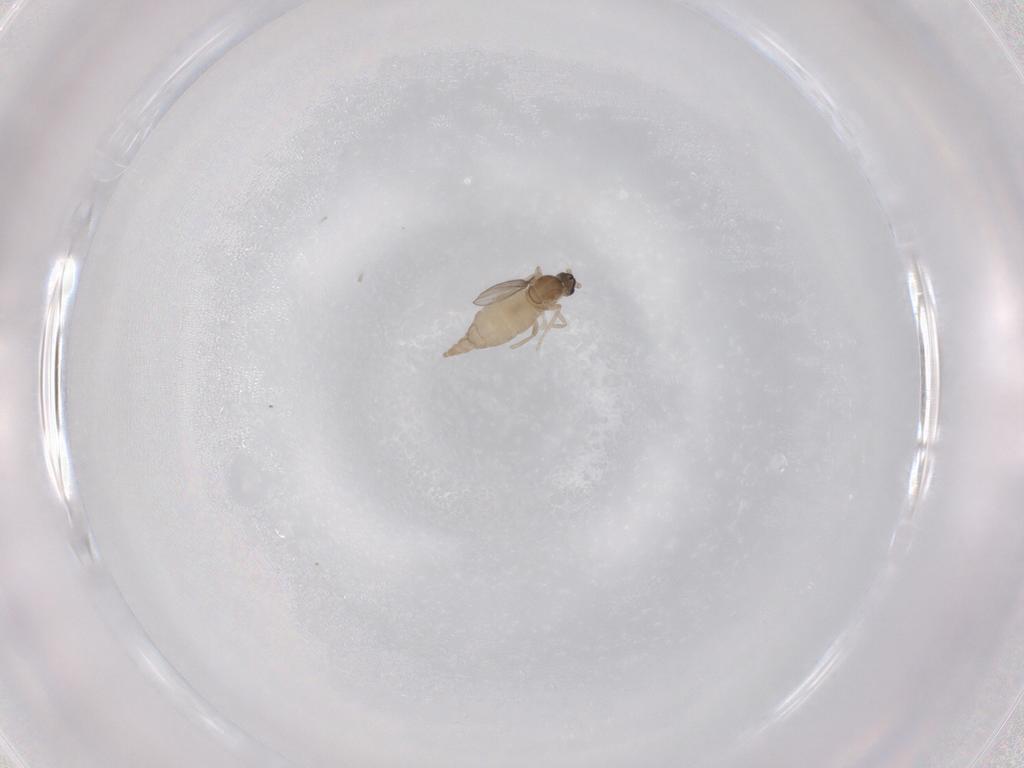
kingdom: Animalia
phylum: Arthropoda
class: Insecta
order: Diptera
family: Cecidomyiidae
